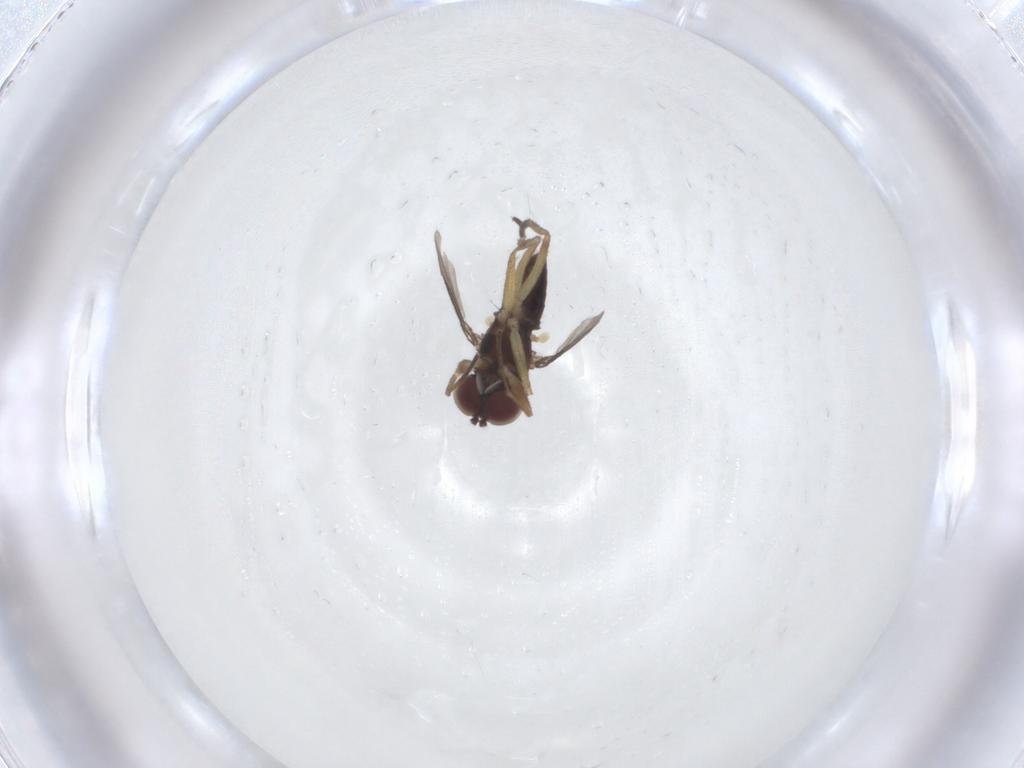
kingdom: Animalia
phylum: Arthropoda
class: Insecta
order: Diptera
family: Dolichopodidae
